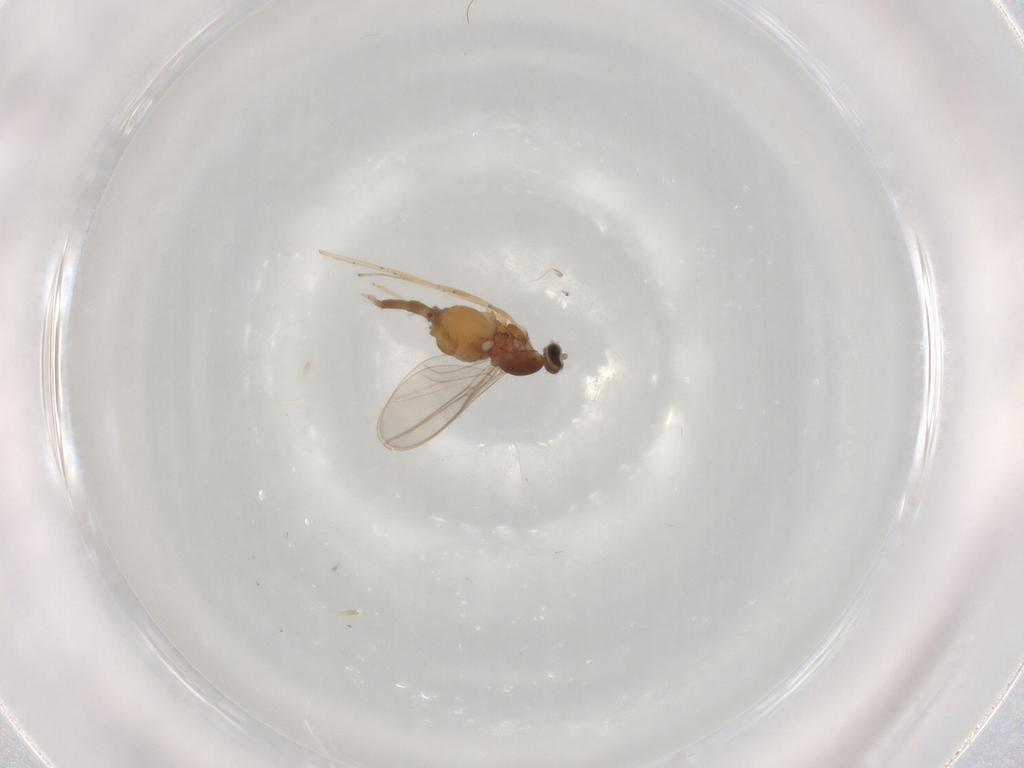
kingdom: Animalia
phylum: Arthropoda
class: Insecta
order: Diptera
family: Cecidomyiidae
